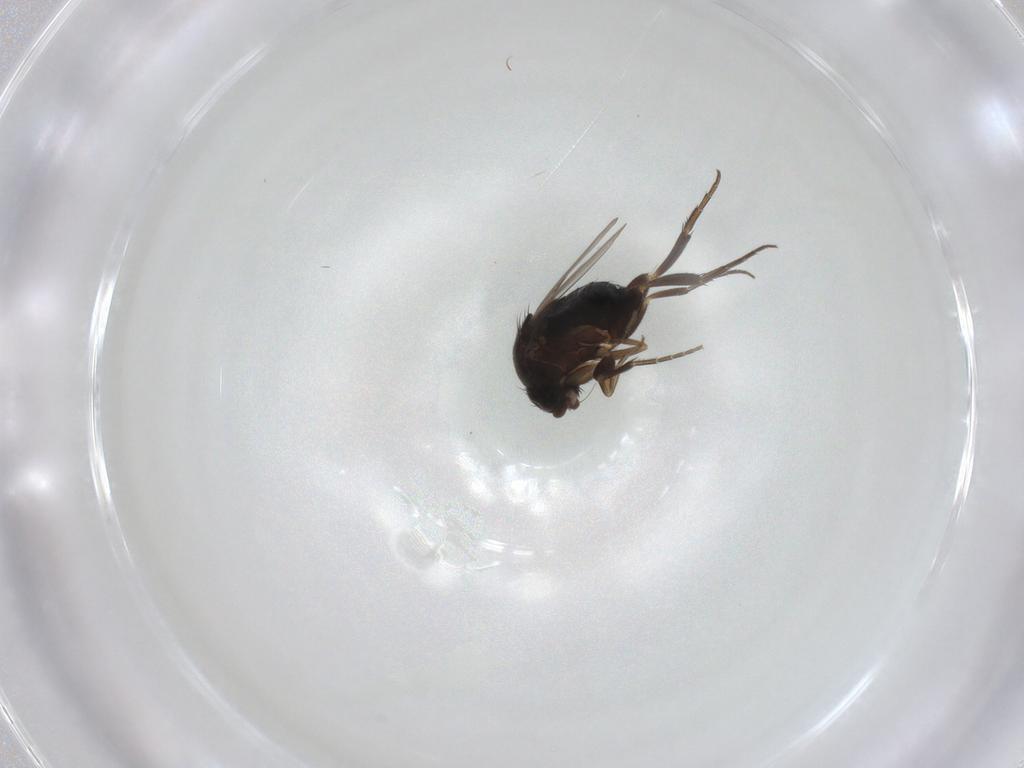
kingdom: Animalia
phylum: Arthropoda
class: Insecta
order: Diptera
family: Phoridae
